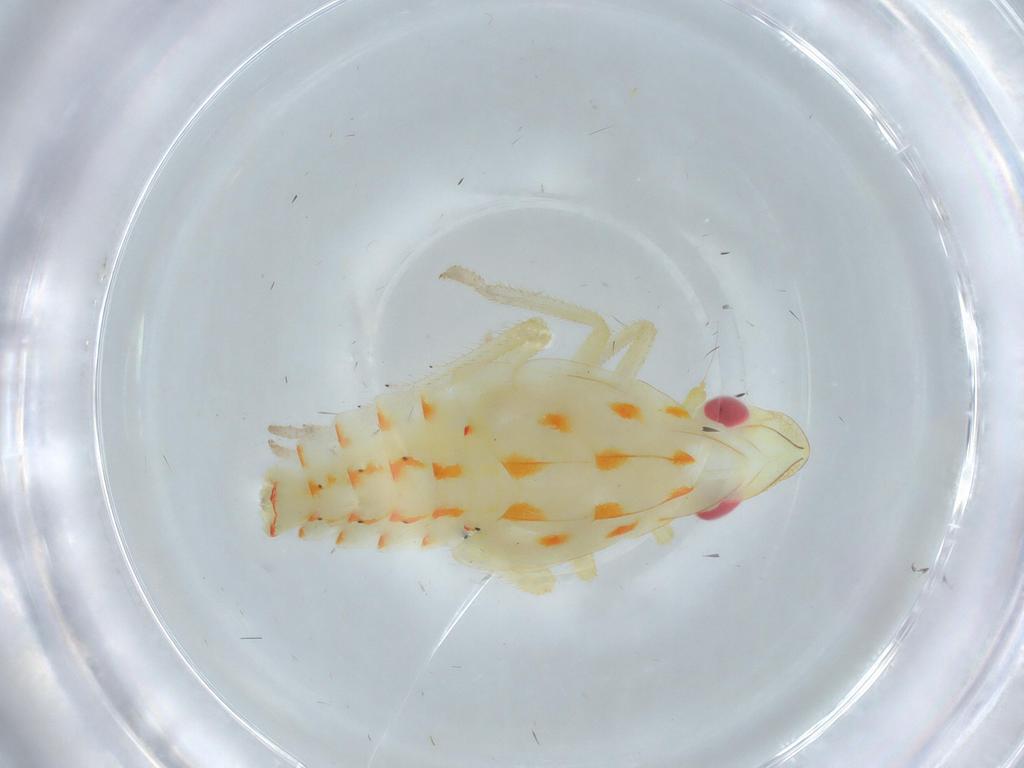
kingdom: Animalia
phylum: Arthropoda
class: Insecta
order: Hemiptera
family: Tropiduchidae
